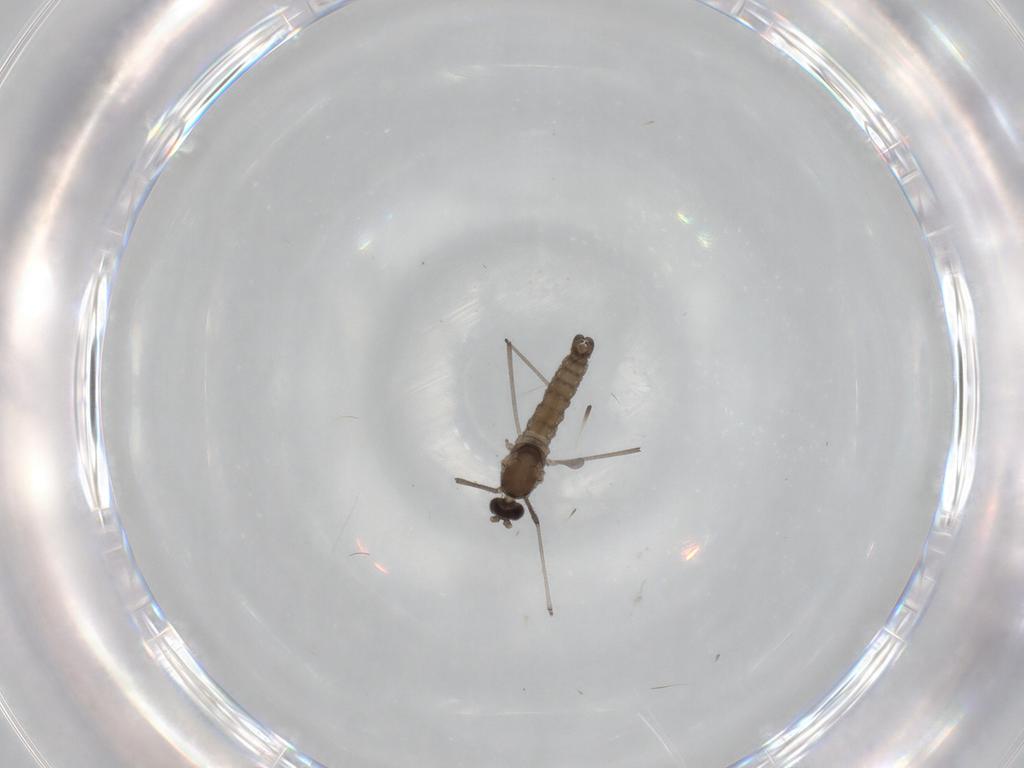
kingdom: Animalia
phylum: Arthropoda
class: Insecta
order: Diptera
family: Cecidomyiidae
